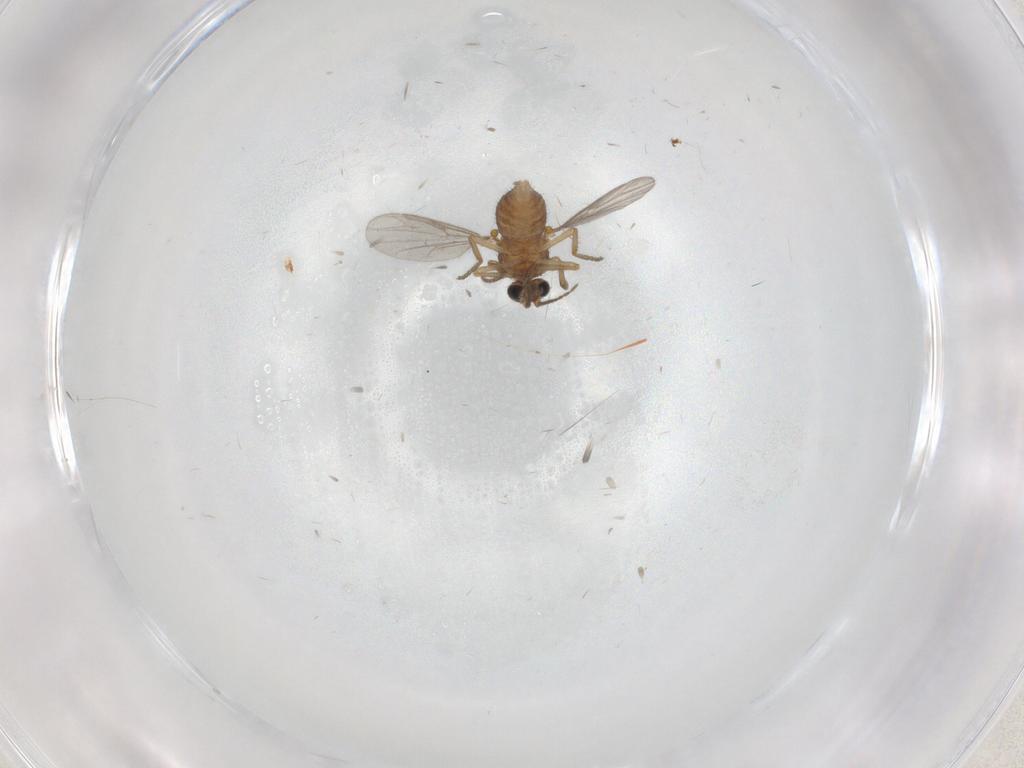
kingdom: Animalia
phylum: Arthropoda
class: Insecta
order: Diptera
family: Ceratopogonidae
